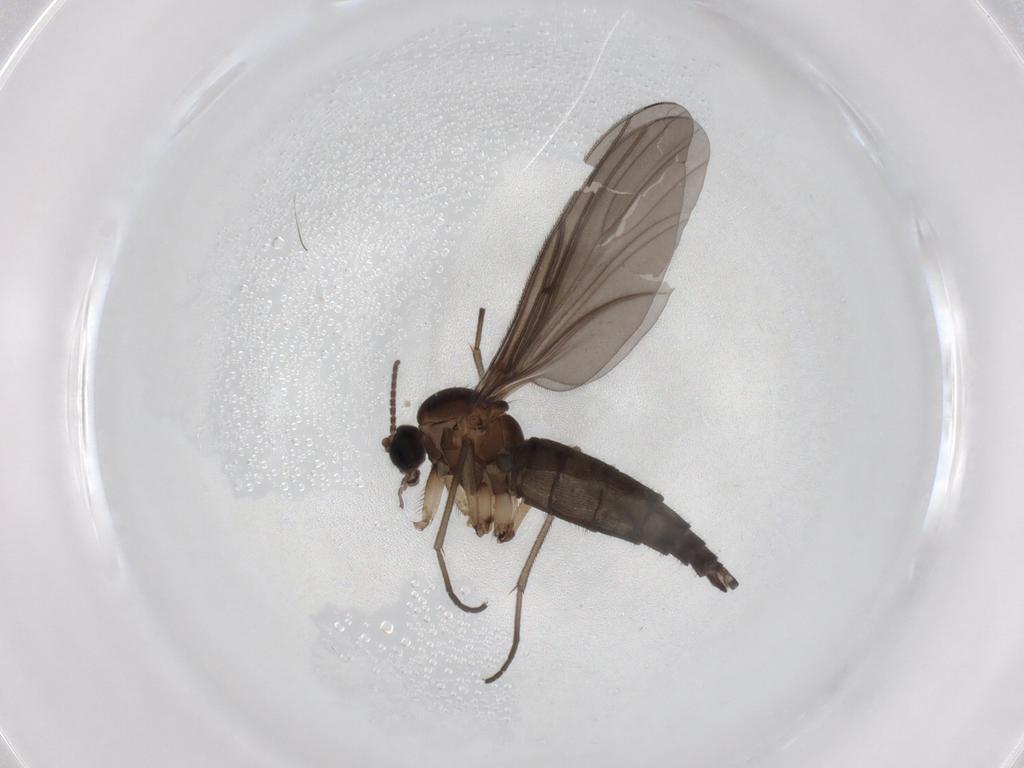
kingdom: Animalia
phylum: Arthropoda
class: Insecta
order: Diptera
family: Sciaridae
